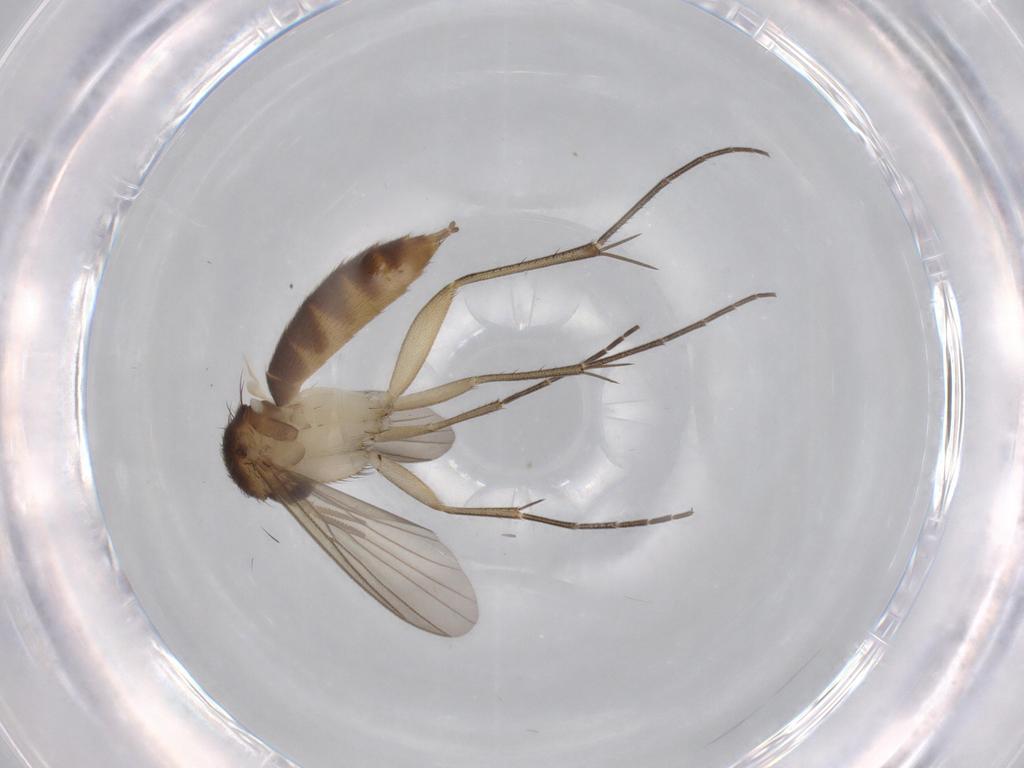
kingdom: Animalia
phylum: Arthropoda
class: Insecta
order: Diptera
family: Mycetophilidae
